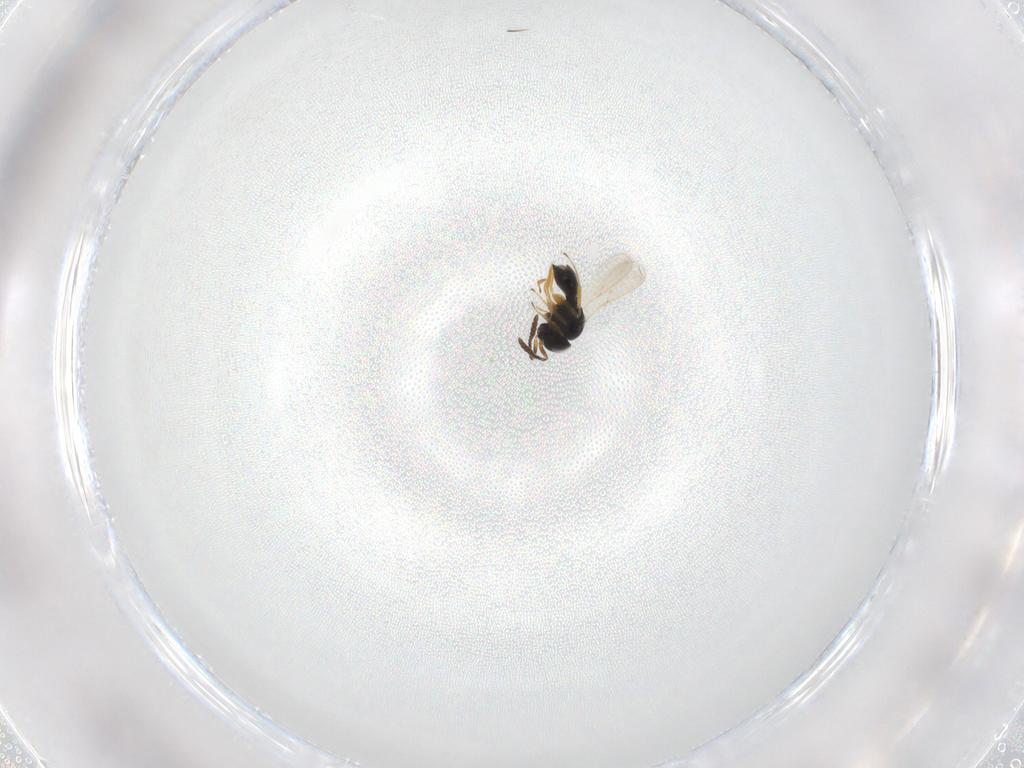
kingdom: Animalia
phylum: Arthropoda
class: Insecta
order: Hymenoptera
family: Scelionidae
